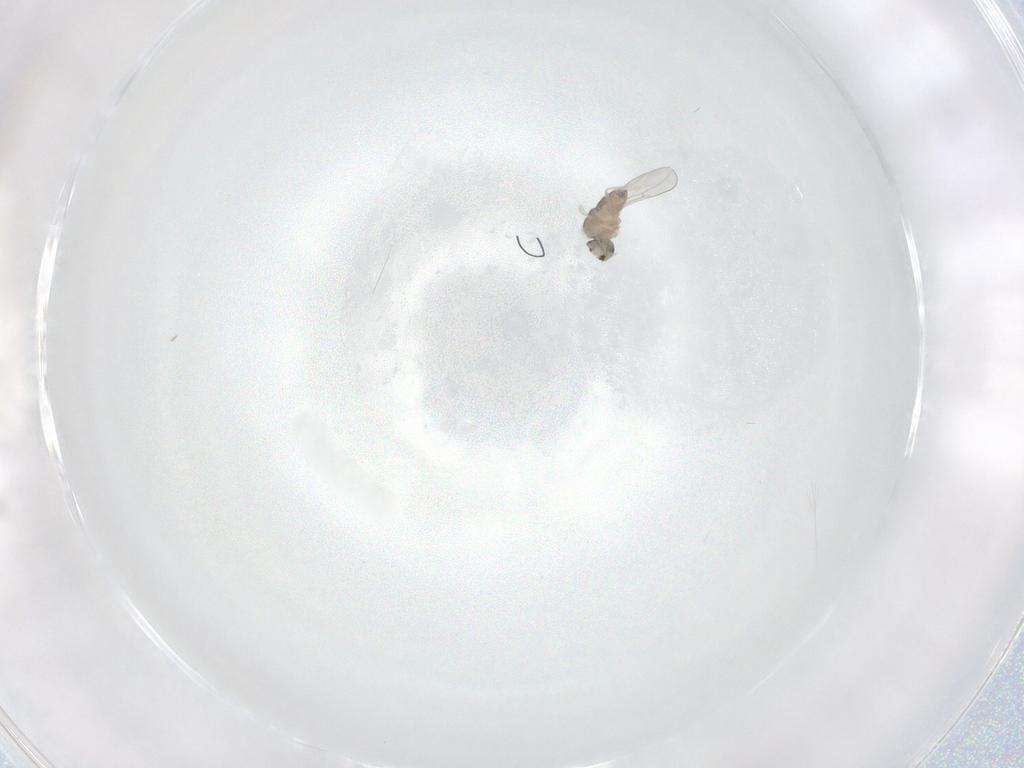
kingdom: Animalia
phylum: Arthropoda
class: Insecta
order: Diptera
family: Cecidomyiidae
